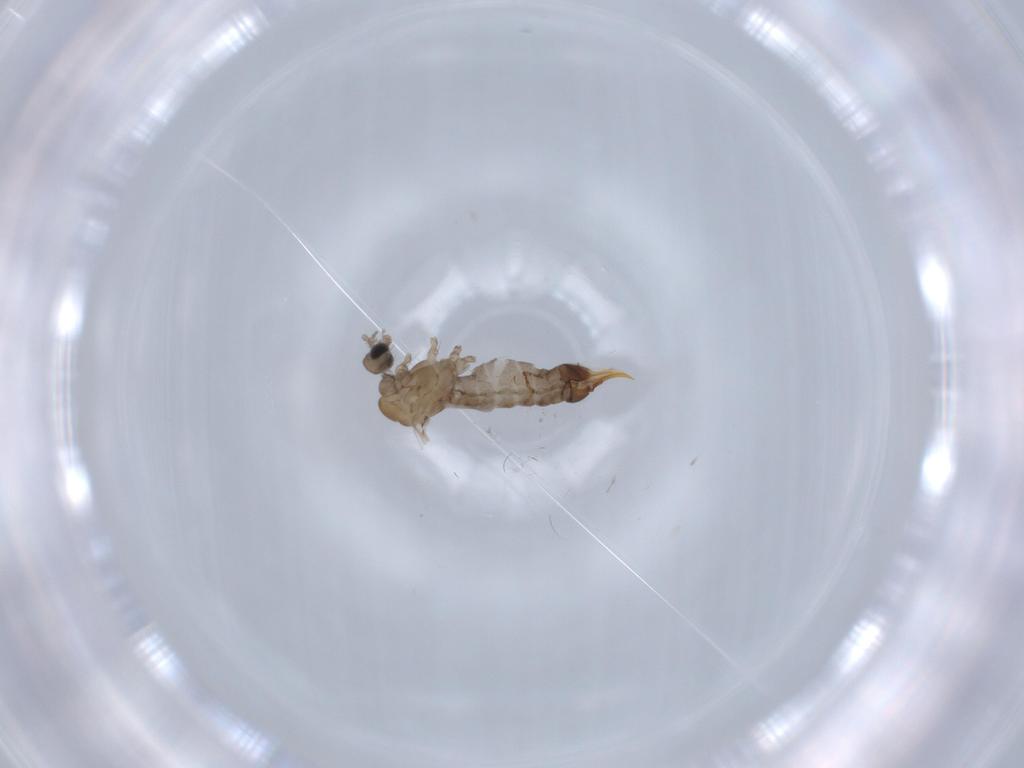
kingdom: Animalia
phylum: Arthropoda
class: Insecta
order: Diptera
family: Limoniidae
